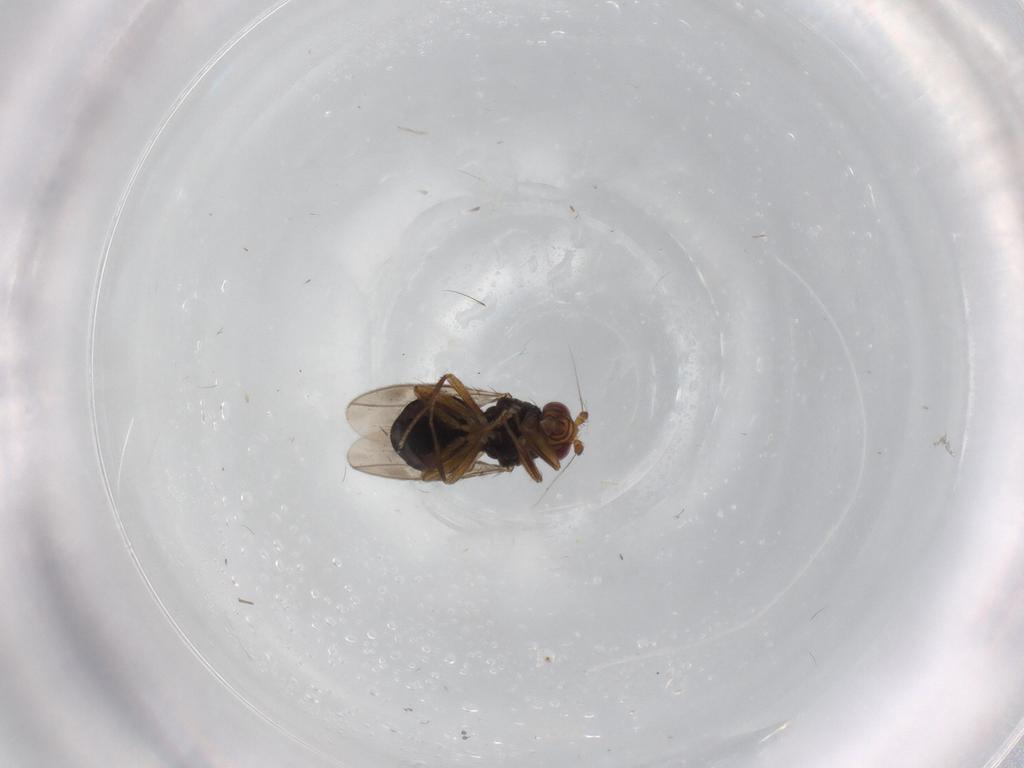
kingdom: Animalia
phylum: Arthropoda
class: Insecta
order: Diptera
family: Sphaeroceridae
